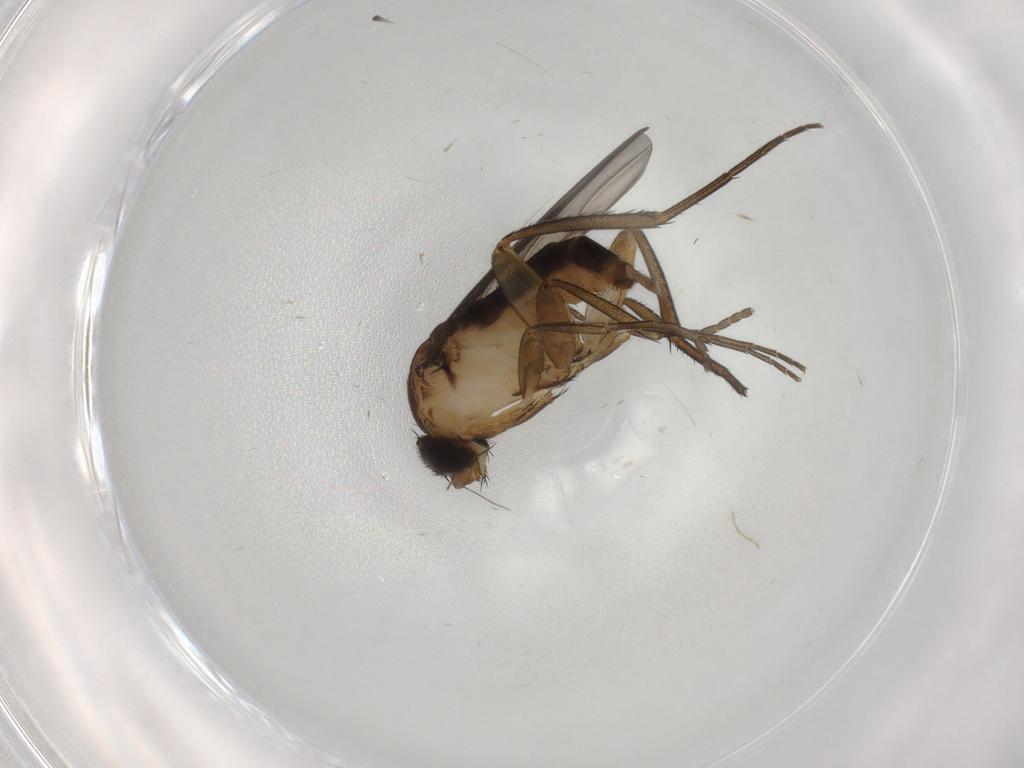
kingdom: Animalia
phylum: Arthropoda
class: Insecta
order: Diptera
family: Phoridae
